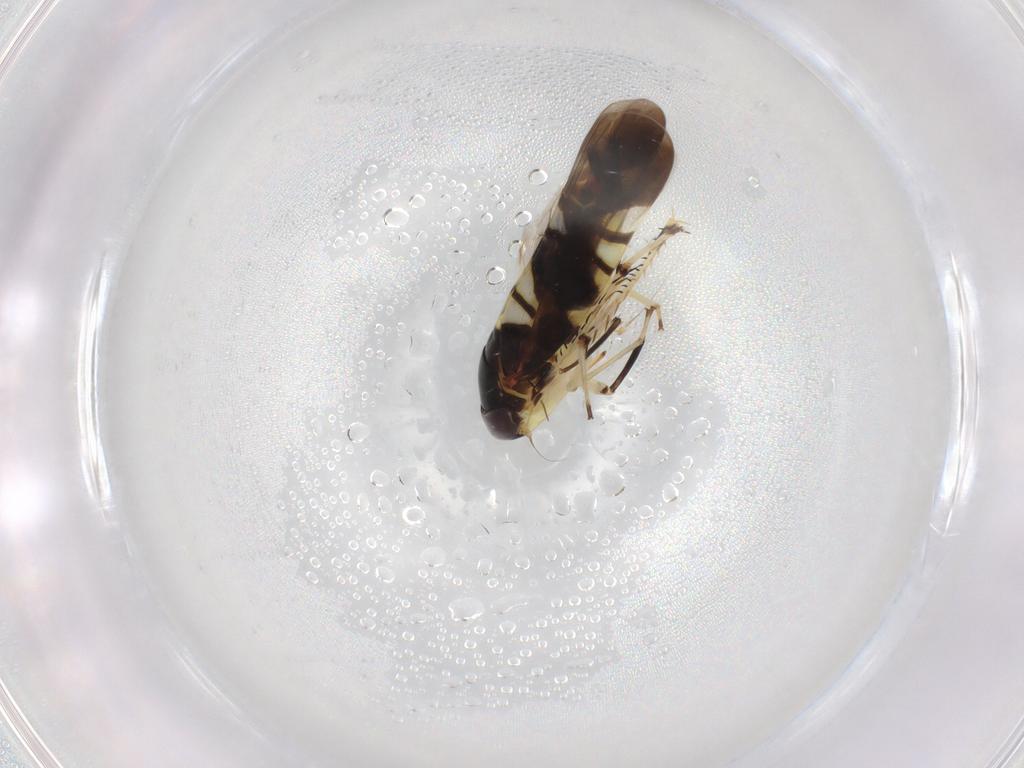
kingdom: Animalia
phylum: Arthropoda
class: Insecta
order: Hemiptera
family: Cicadellidae
